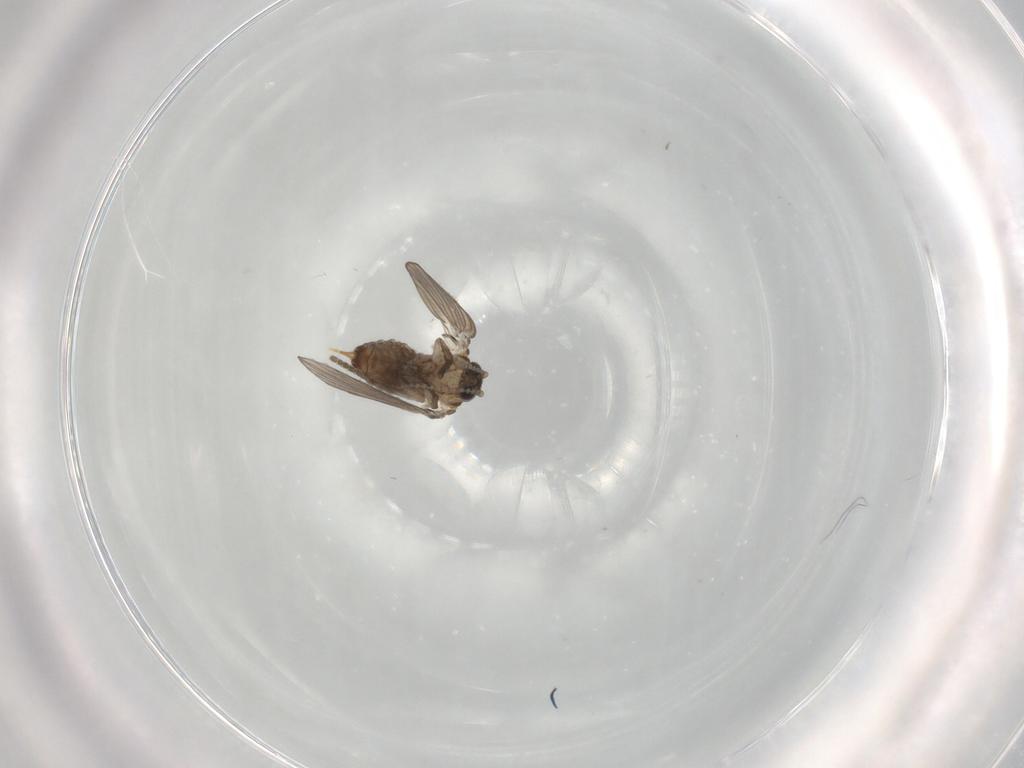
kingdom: Animalia
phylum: Arthropoda
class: Insecta
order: Diptera
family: Psychodidae
